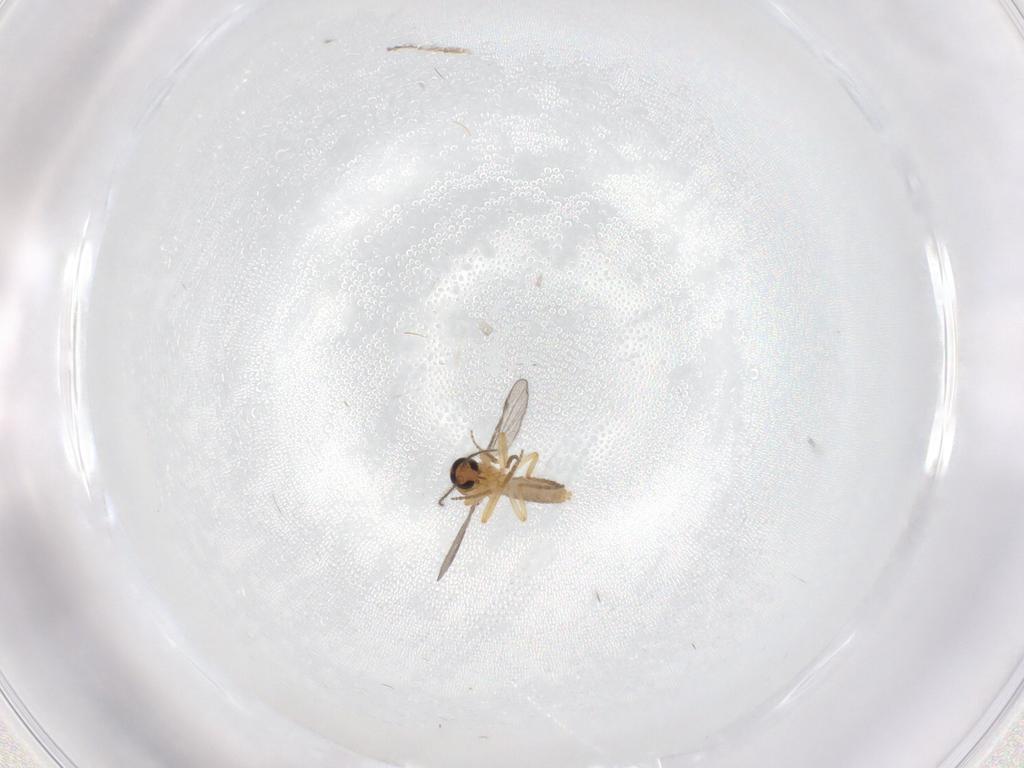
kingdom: Animalia
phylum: Arthropoda
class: Insecta
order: Diptera
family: Ceratopogonidae
